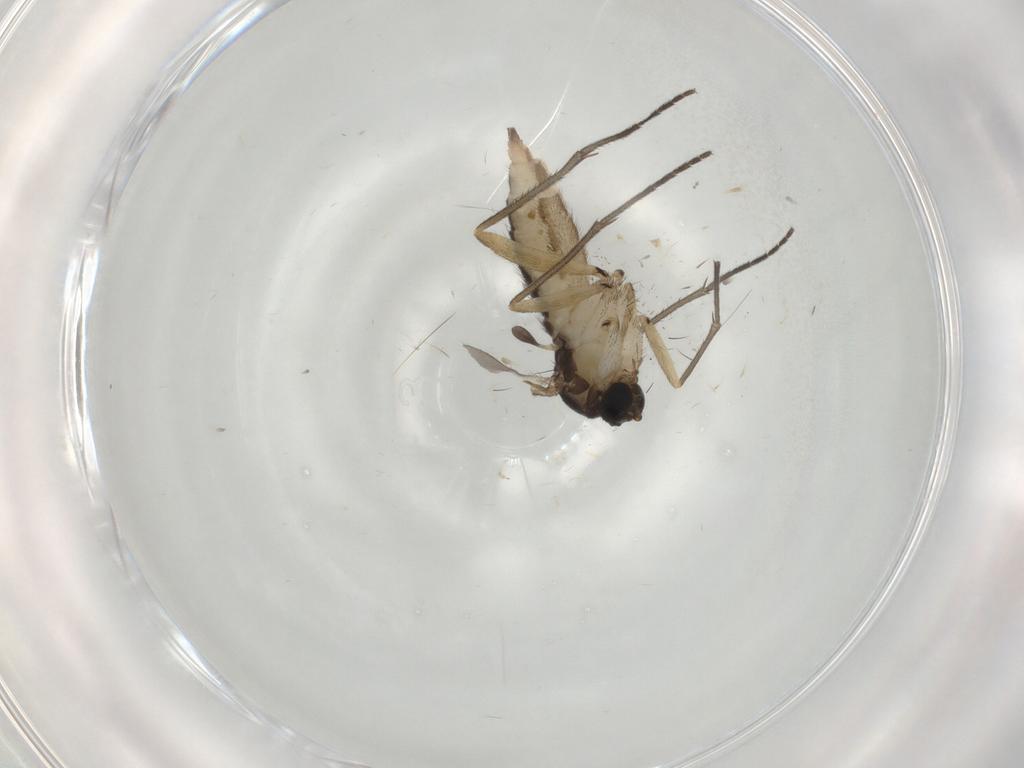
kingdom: Animalia
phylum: Arthropoda
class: Insecta
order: Diptera
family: Sciaridae
